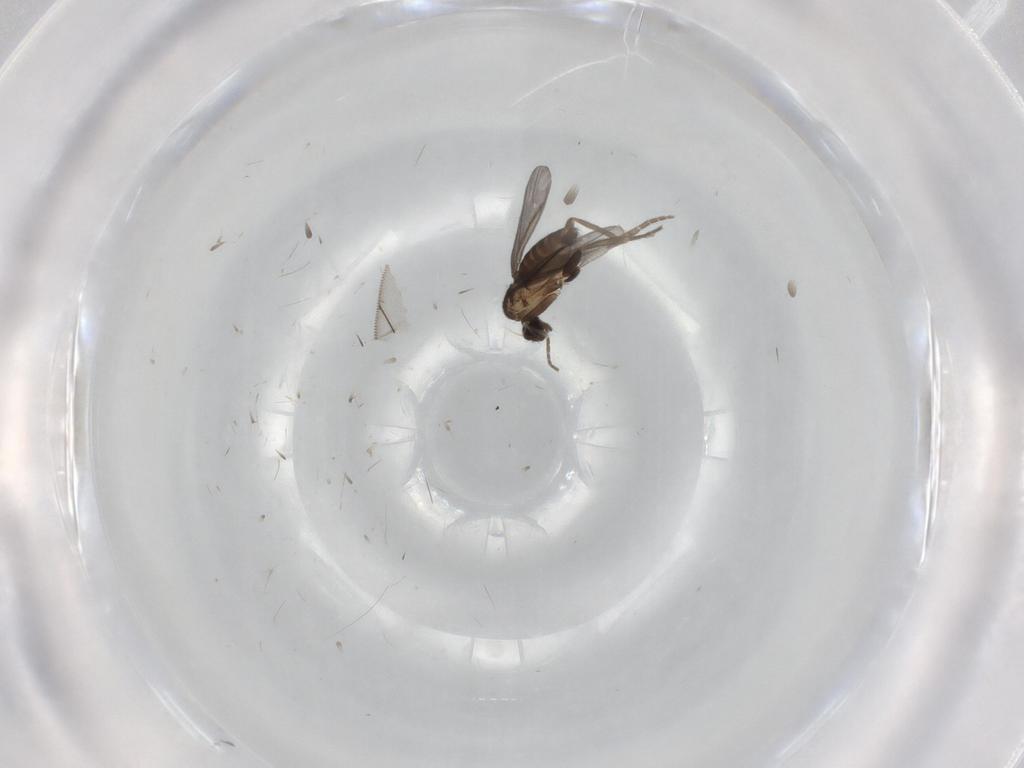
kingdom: Animalia
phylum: Arthropoda
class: Insecta
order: Diptera
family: Phoridae
